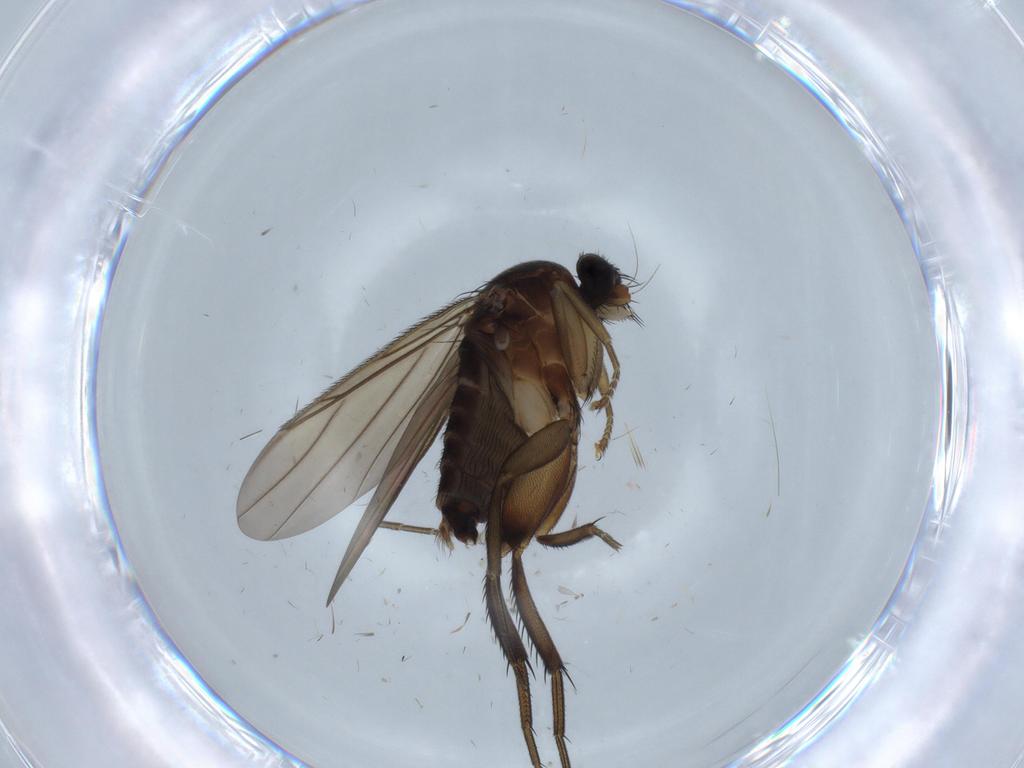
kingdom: Animalia
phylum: Arthropoda
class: Insecta
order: Diptera
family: Phoridae
